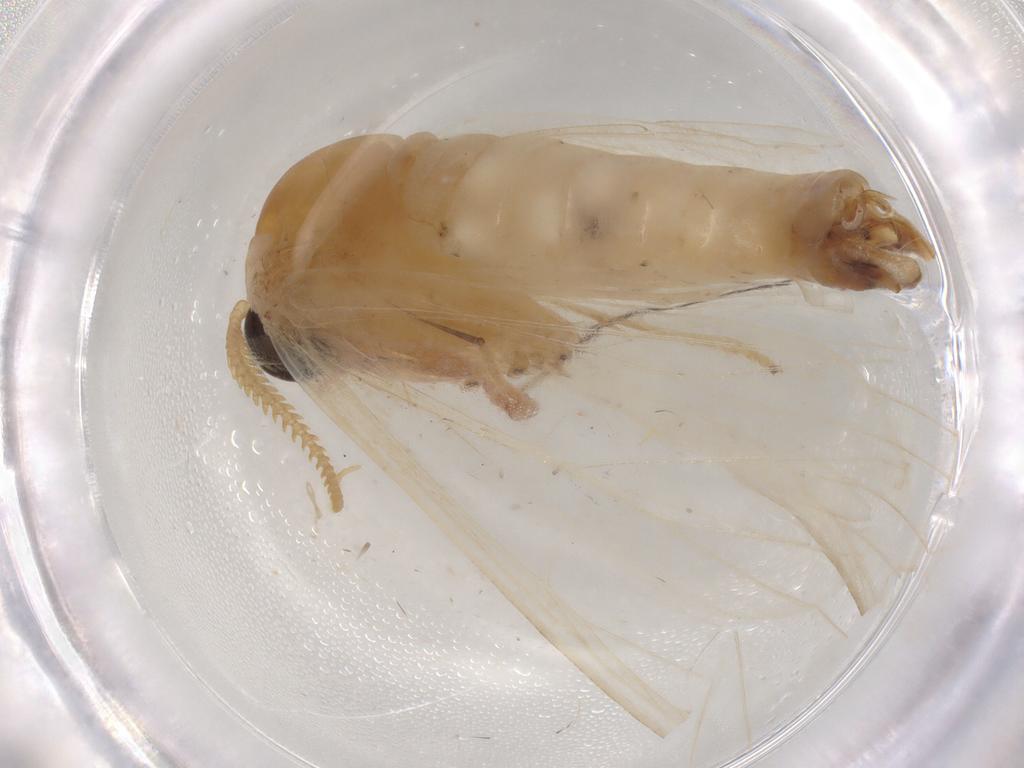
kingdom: Animalia
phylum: Arthropoda
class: Insecta
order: Lepidoptera
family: Geometridae
